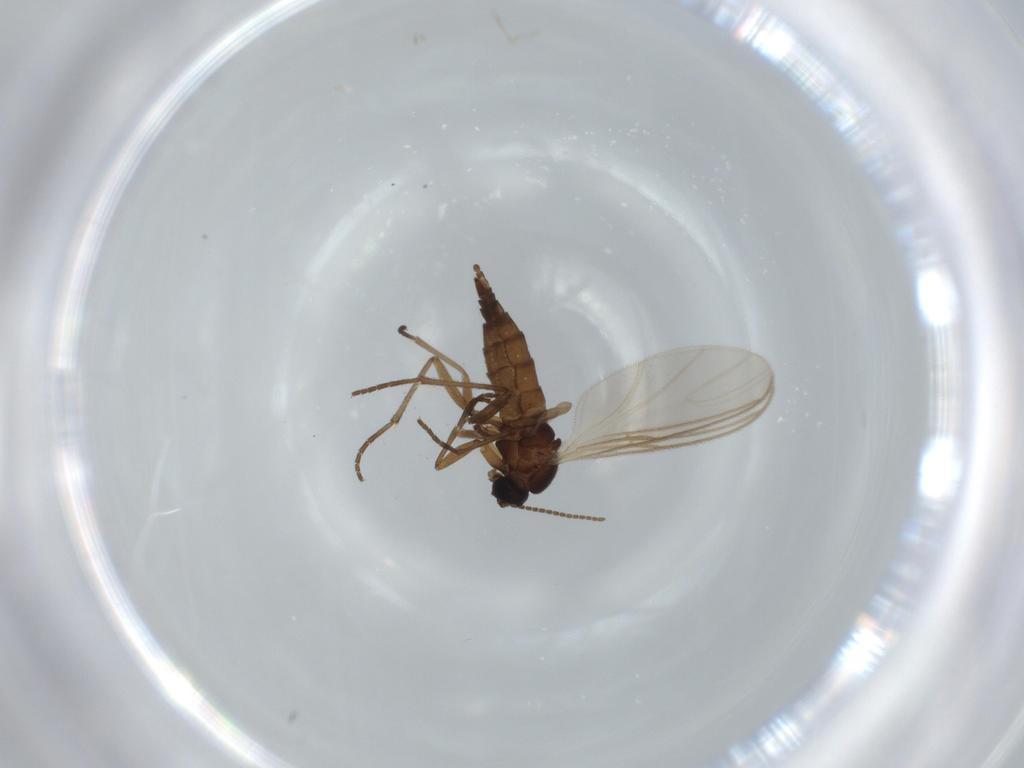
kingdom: Animalia
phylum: Arthropoda
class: Insecta
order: Diptera
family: Sciaridae
